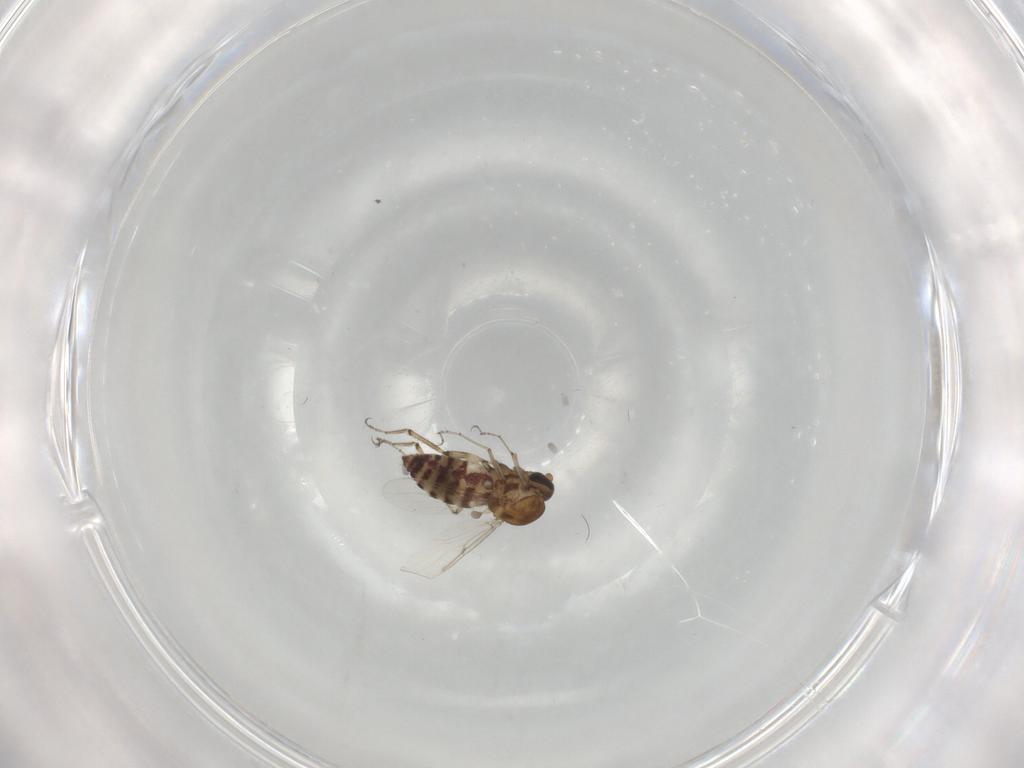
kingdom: Animalia
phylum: Arthropoda
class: Insecta
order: Diptera
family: Ceratopogonidae
